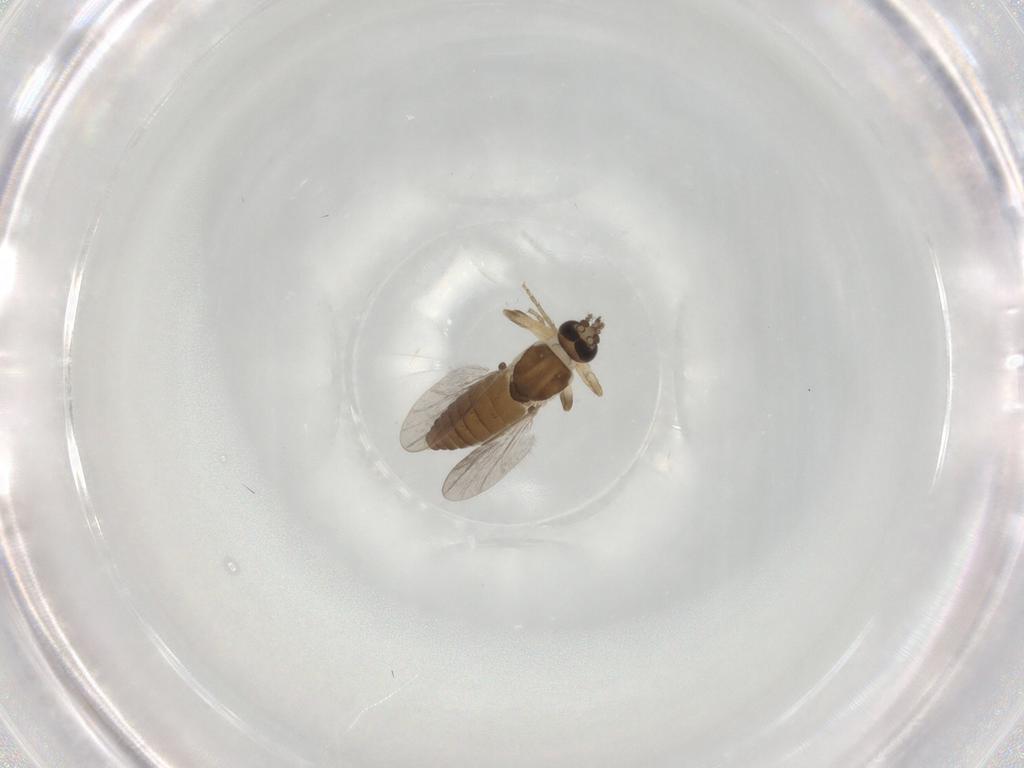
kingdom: Animalia
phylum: Arthropoda
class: Insecta
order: Diptera
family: Ceratopogonidae
